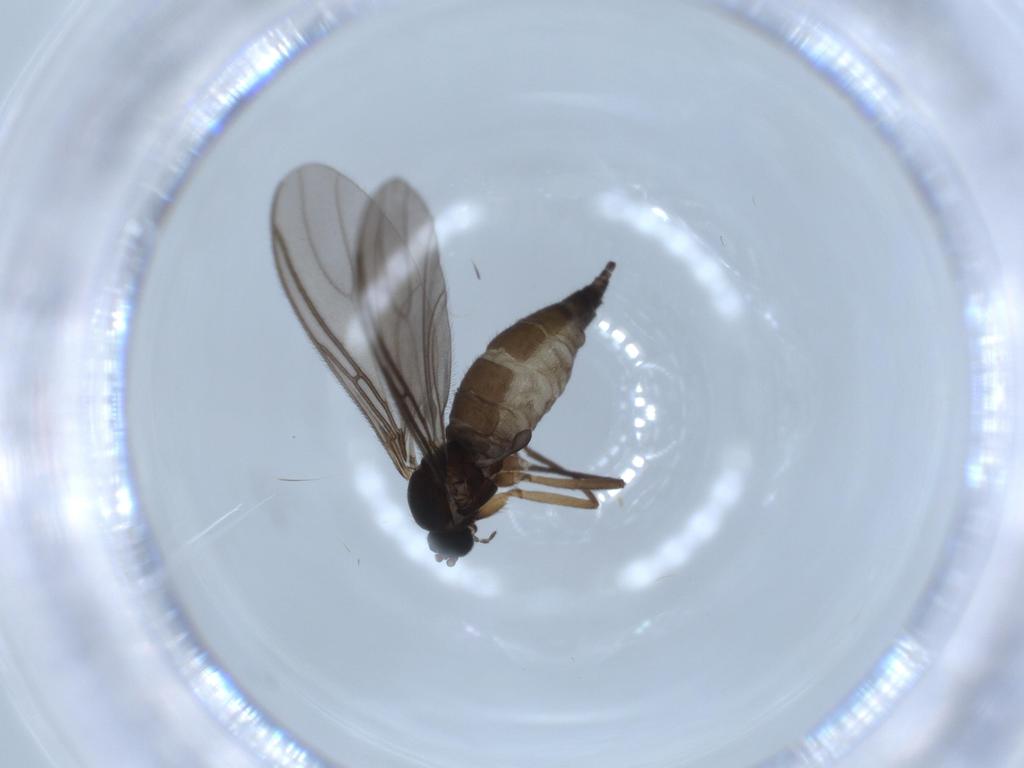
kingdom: Animalia
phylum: Arthropoda
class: Insecta
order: Diptera
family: Sciaridae
